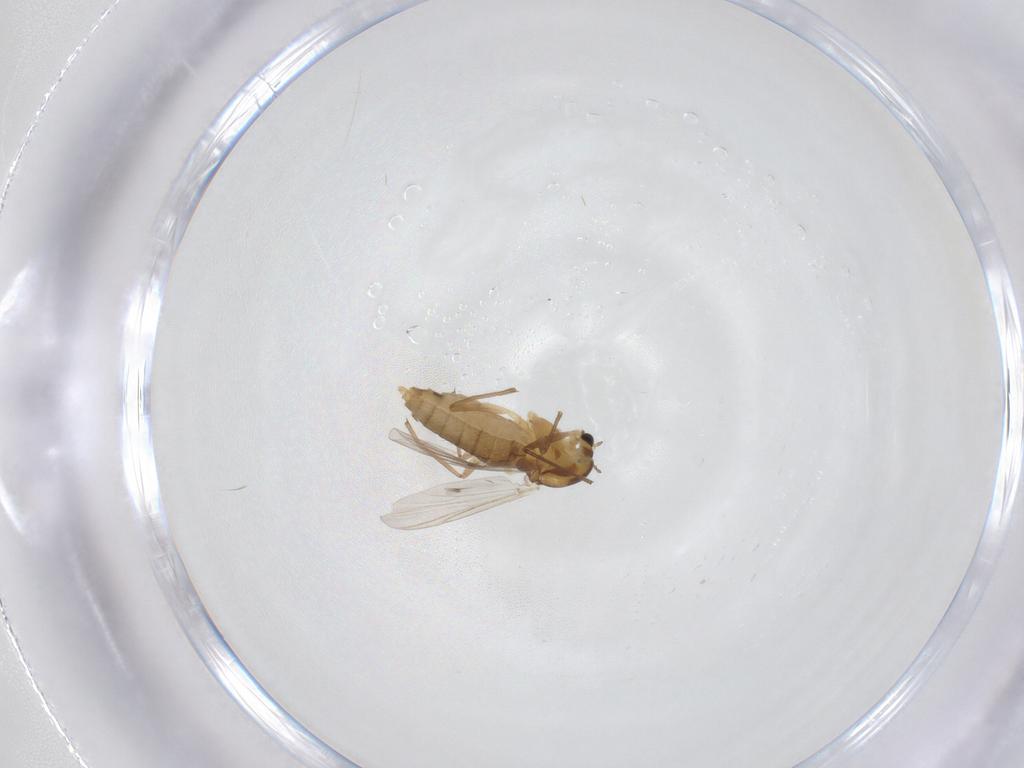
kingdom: Animalia
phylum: Arthropoda
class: Insecta
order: Diptera
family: Chironomidae
